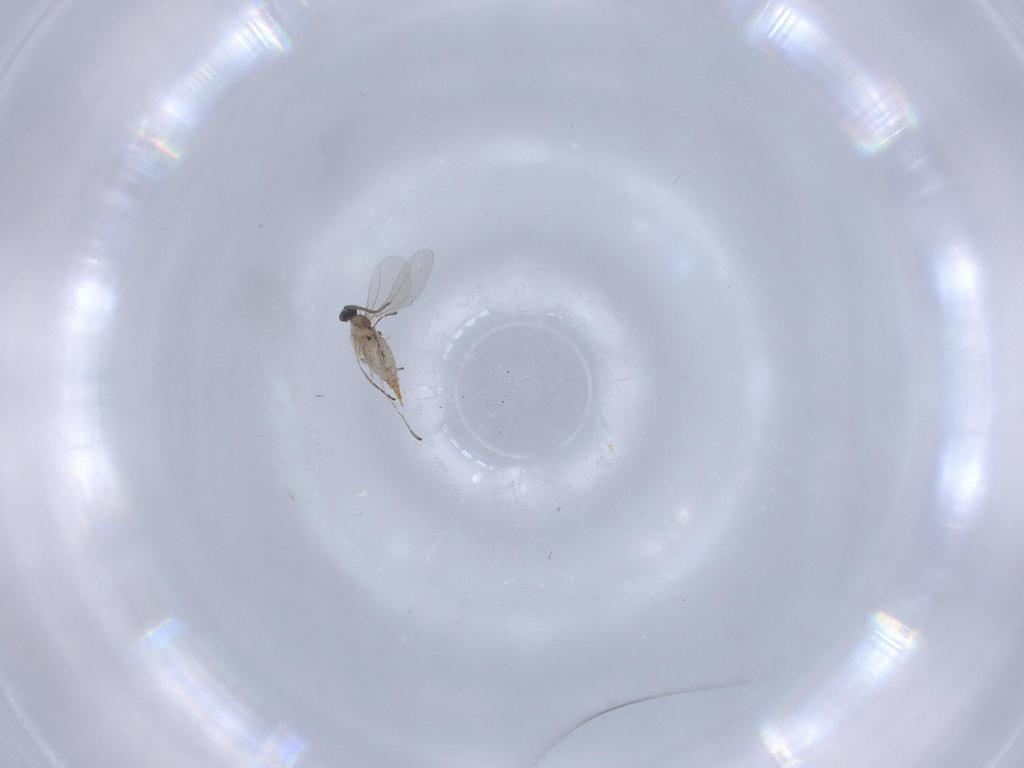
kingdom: Animalia
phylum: Arthropoda
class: Insecta
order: Diptera
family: Cecidomyiidae
